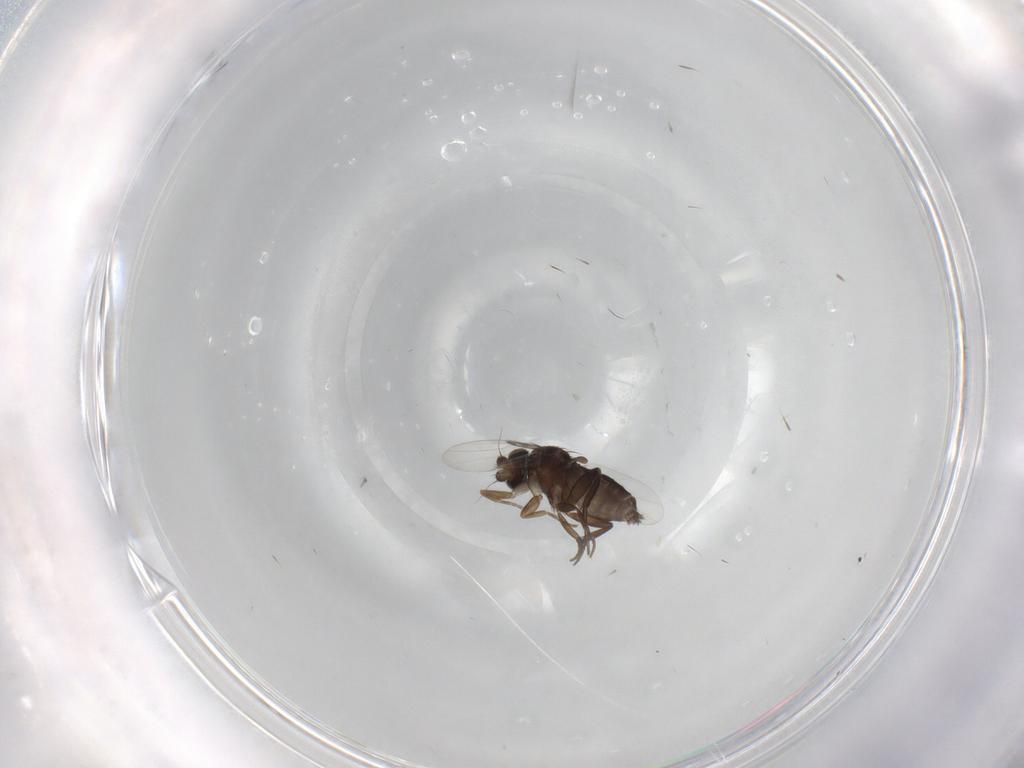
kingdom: Animalia
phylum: Arthropoda
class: Insecta
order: Diptera
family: Phoridae
